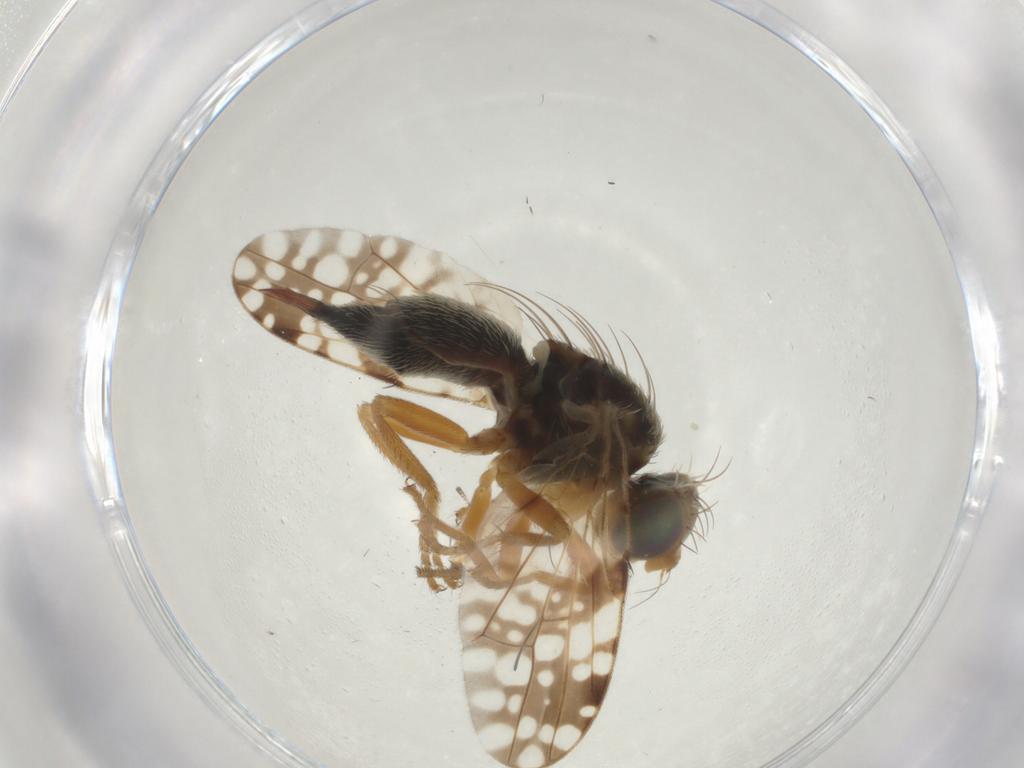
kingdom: Animalia
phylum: Arthropoda
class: Insecta
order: Diptera
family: Tephritidae
